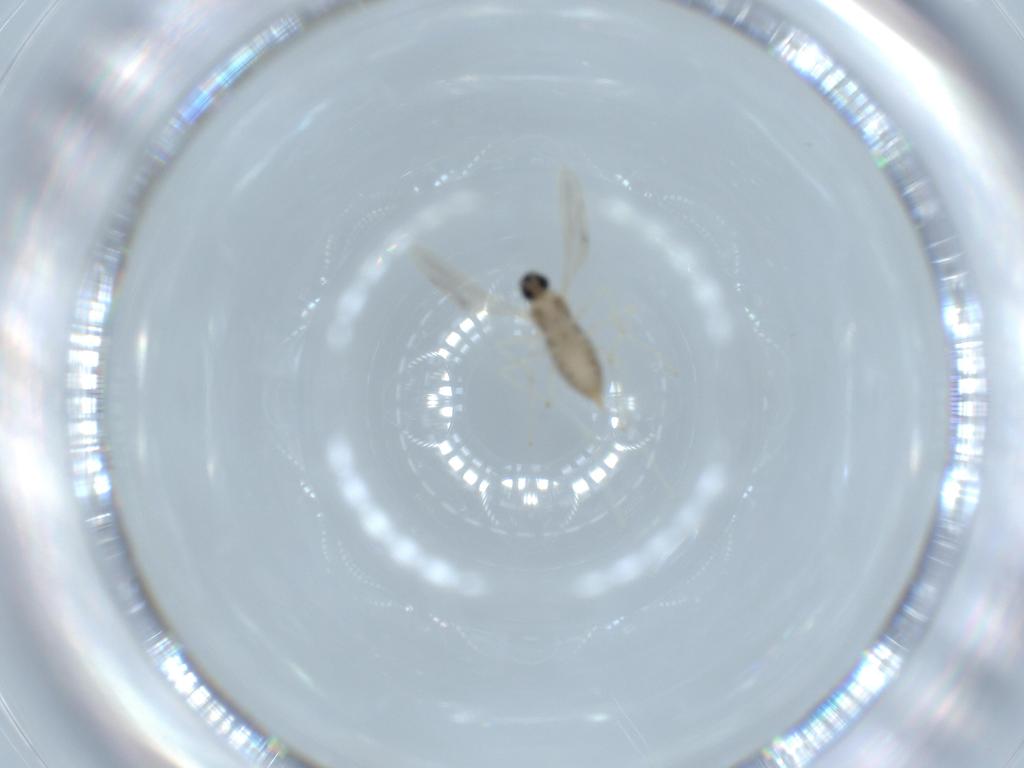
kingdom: Animalia
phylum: Arthropoda
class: Insecta
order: Diptera
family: Cecidomyiidae
